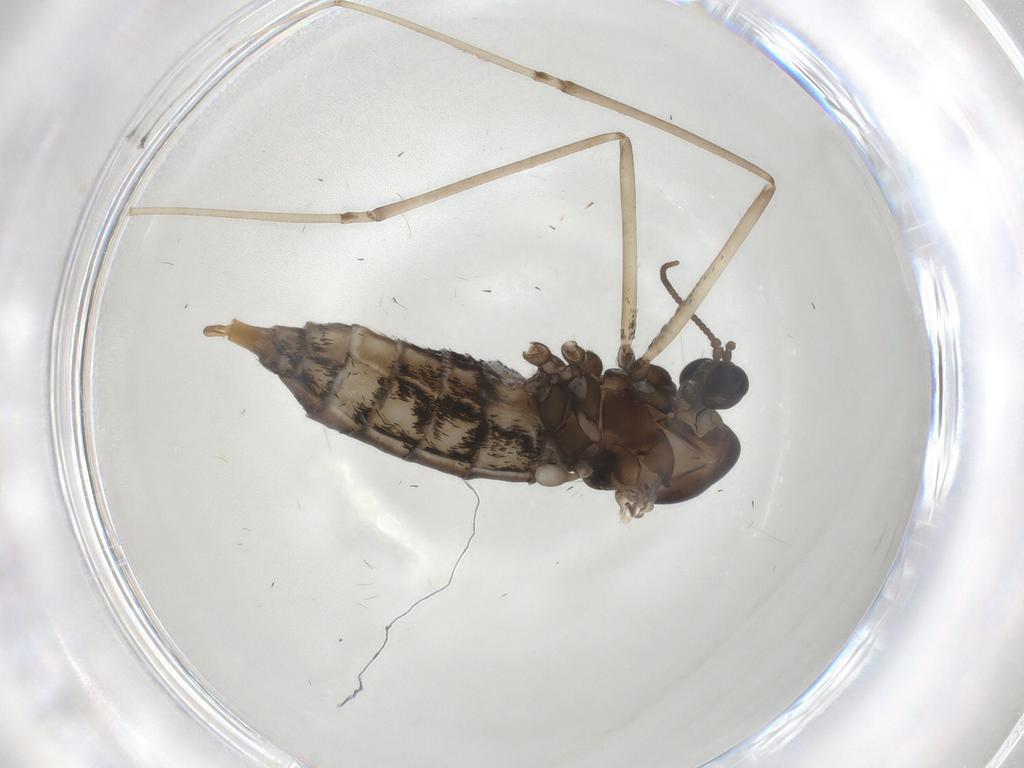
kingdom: Animalia
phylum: Arthropoda
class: Insecta
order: Diptera
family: Cecidomyiidae
